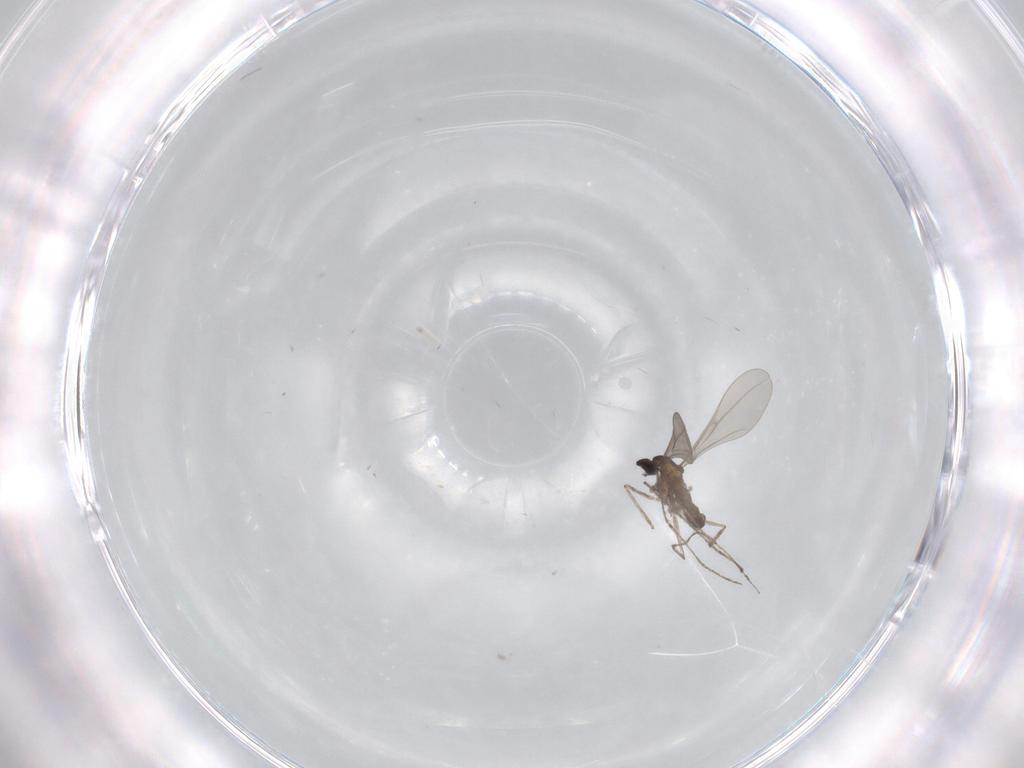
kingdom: Animalia
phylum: Arthropoda
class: Insecta
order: Diptera
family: Cecidomyiidae
